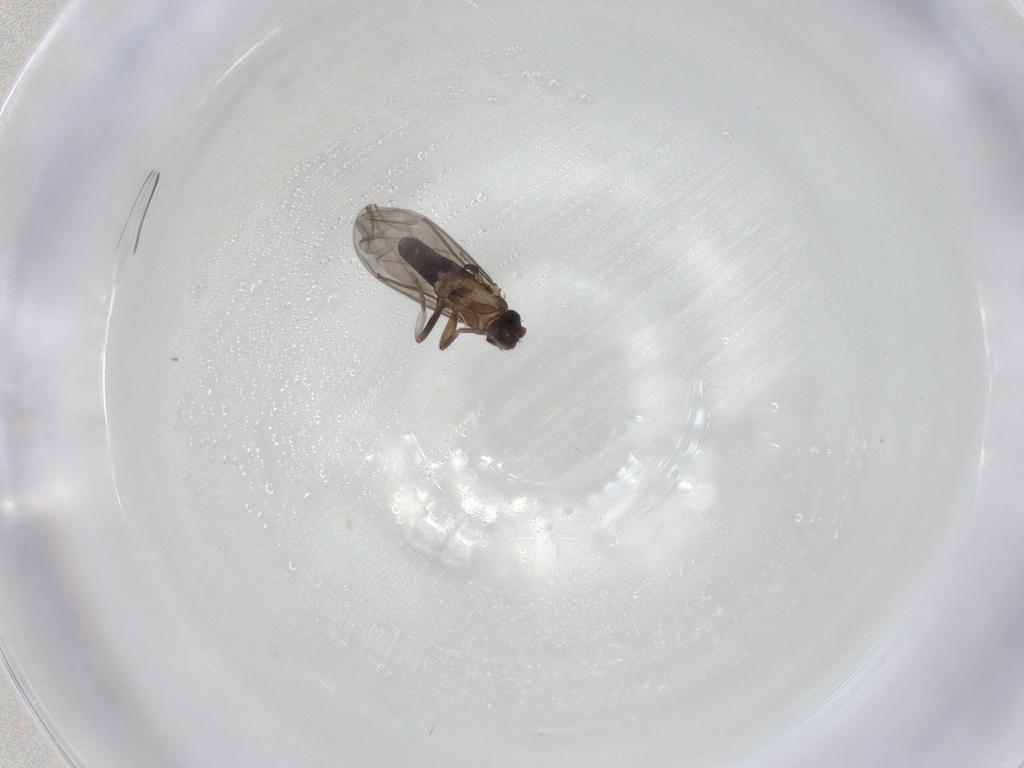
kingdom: Animalia
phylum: Arthropoda
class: Insecta
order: Diptera
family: Phoridae
